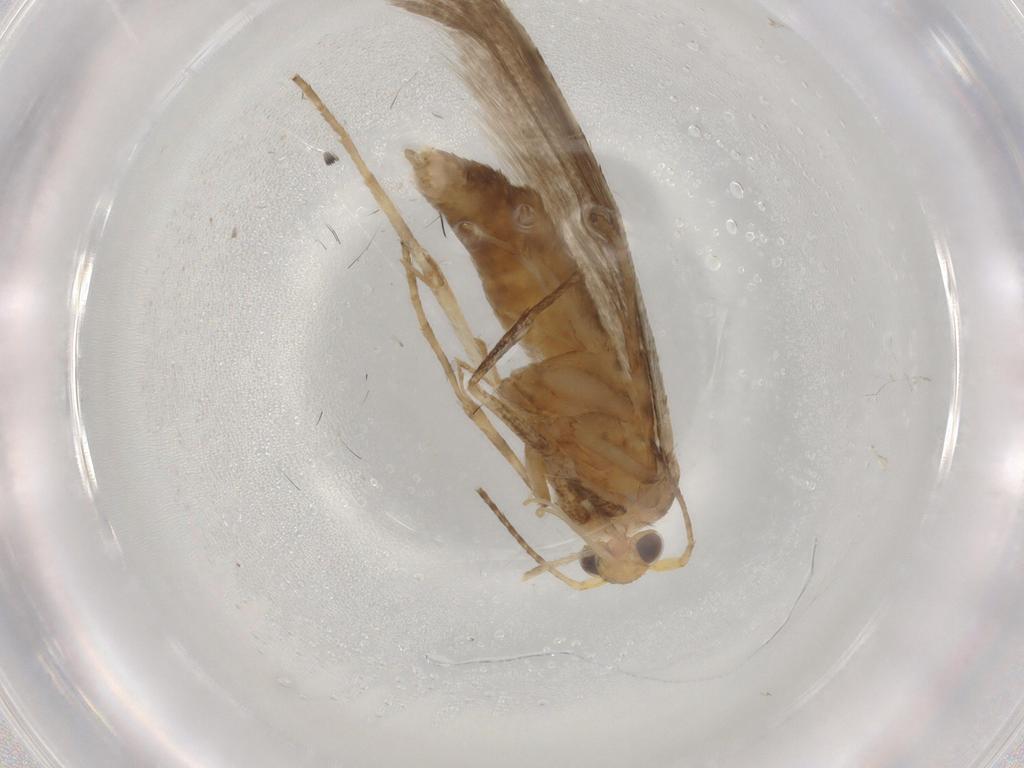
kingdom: Animalia
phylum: Arthropoda
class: Insecta
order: Lepidoptera
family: Argyresthiidae
